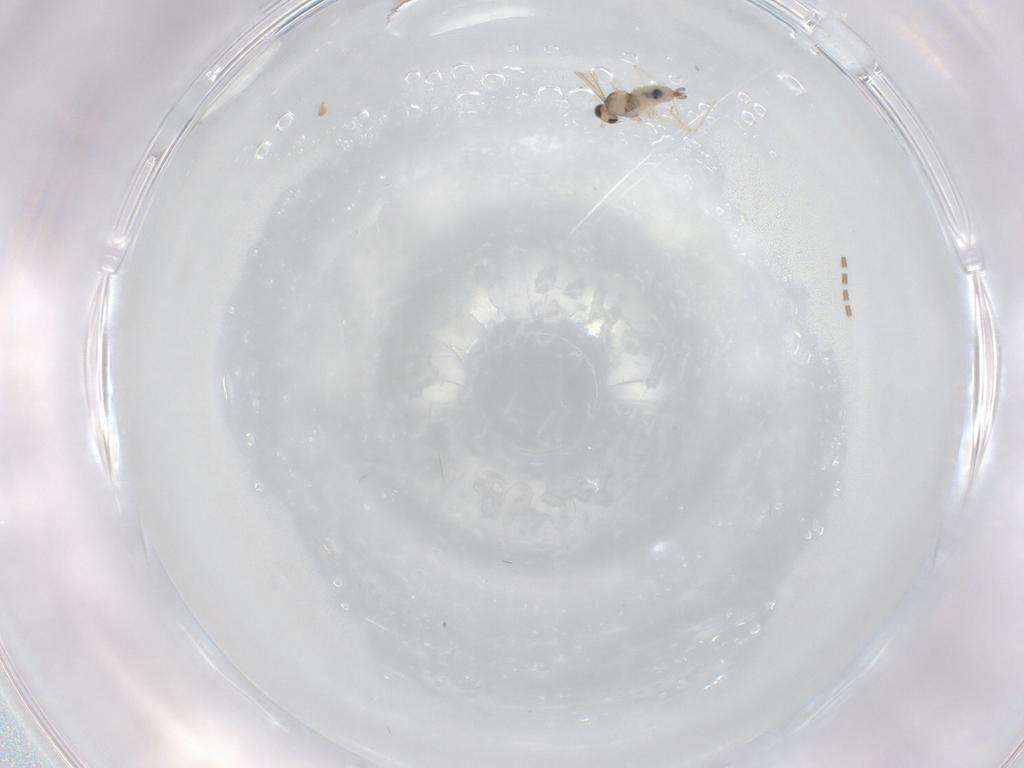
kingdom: Animalia
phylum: Arthropoda
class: Insecta
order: Diptera
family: Cecidomyiidae
